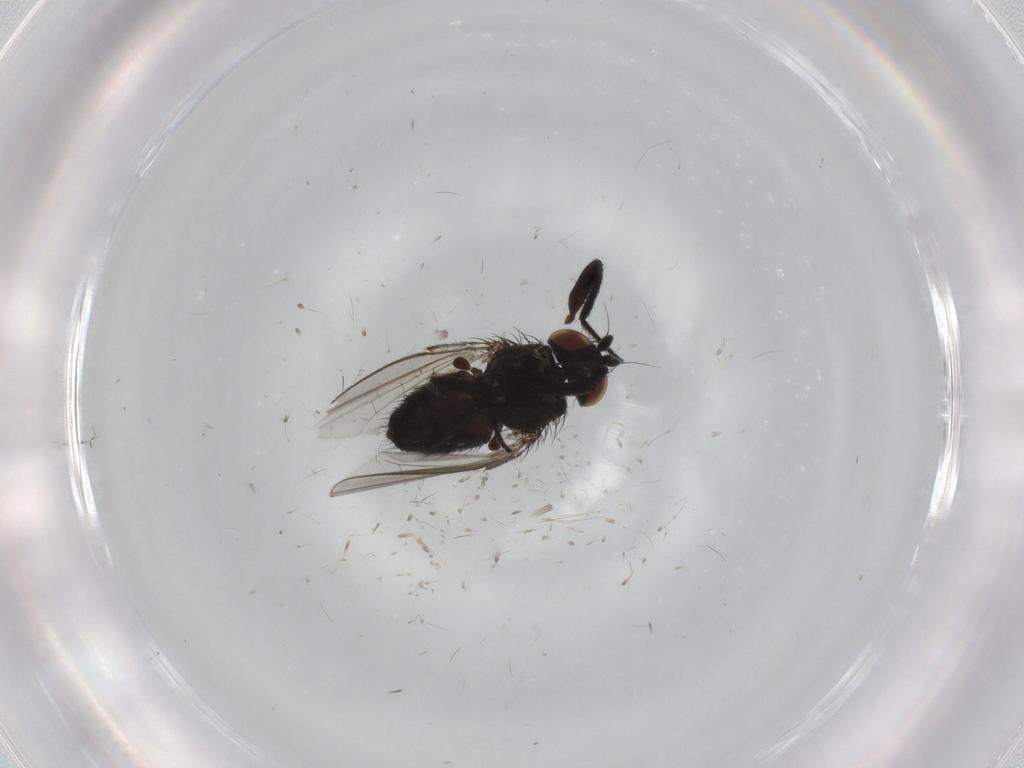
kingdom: Animalia
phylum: Arthropoda
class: Insecta
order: Diptera
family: Milichiidae
